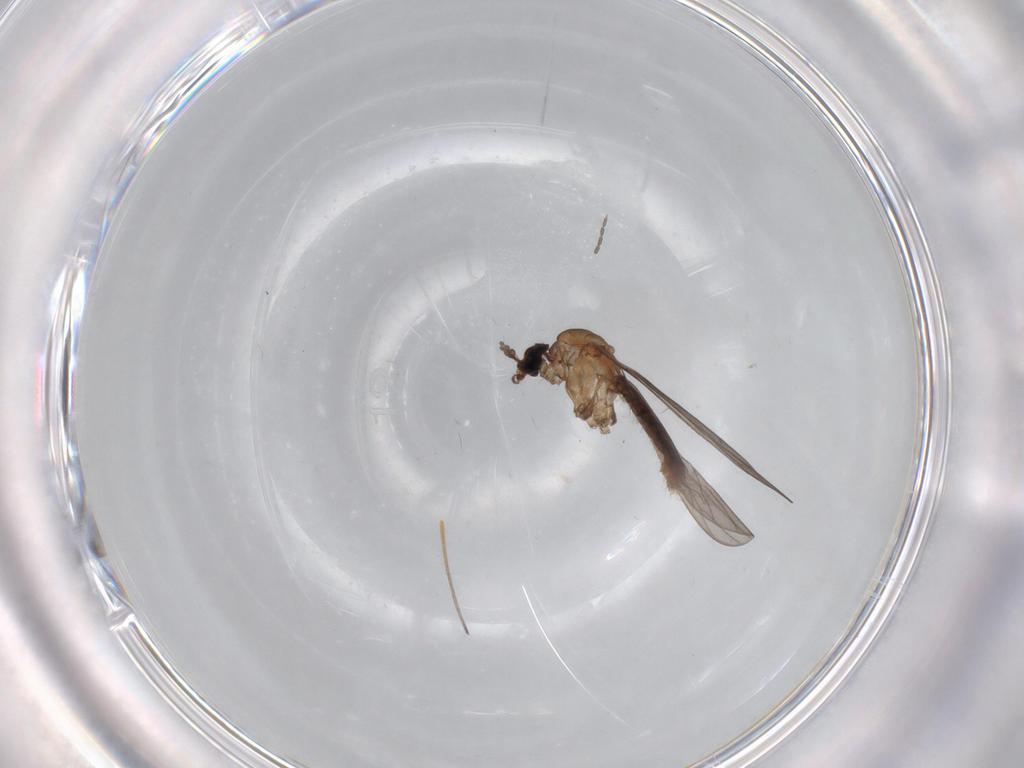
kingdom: Animalia
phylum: Arthropoda
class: Insecta
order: Diptera
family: Limoniidae
